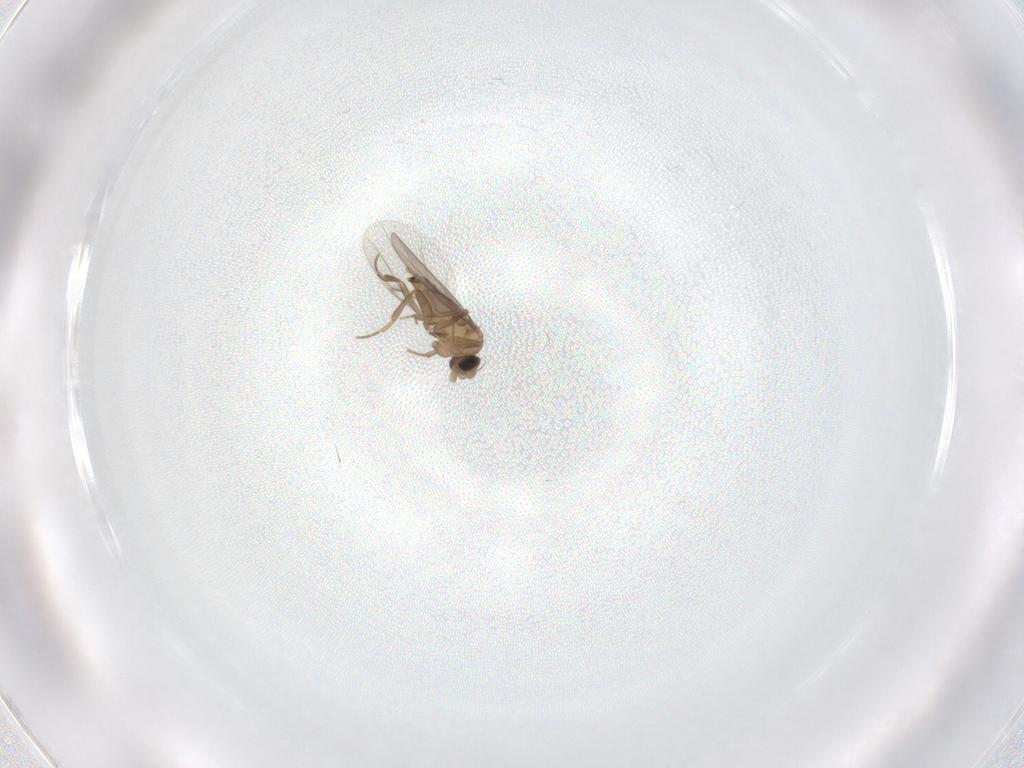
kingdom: Animalia
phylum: Arthropoda
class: Insecta
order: Diptera
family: Sphaeroceridae
